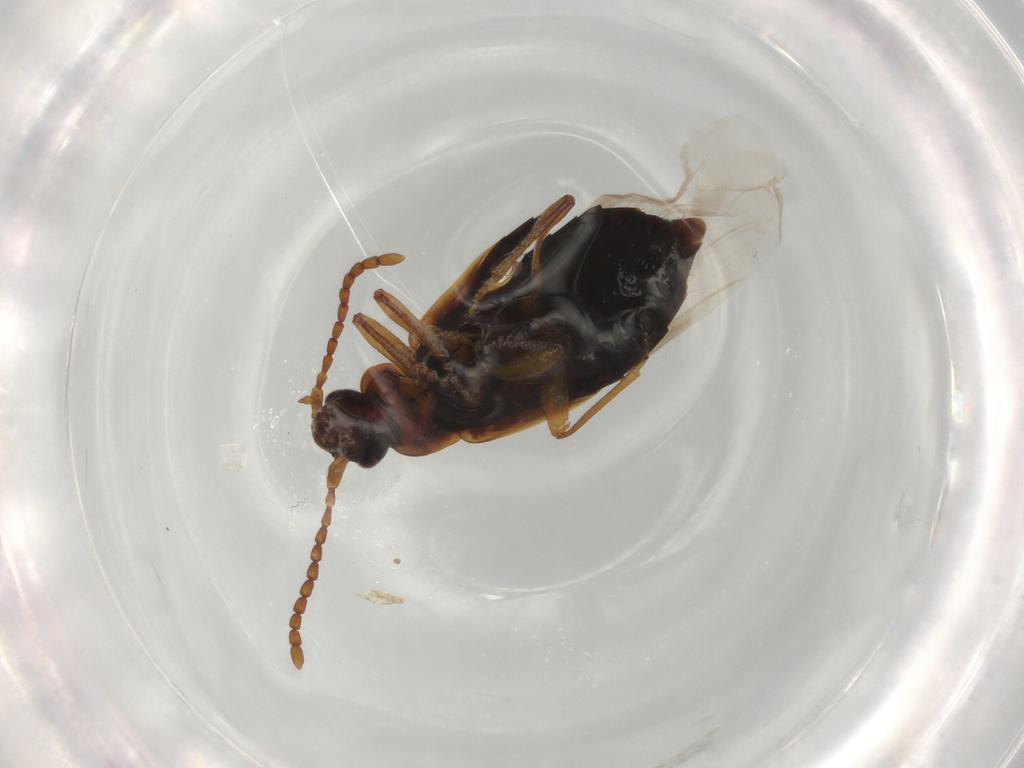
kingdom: Animalia
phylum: Arthropoda
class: Insecta
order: Coleoptera
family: Staphylinidae
